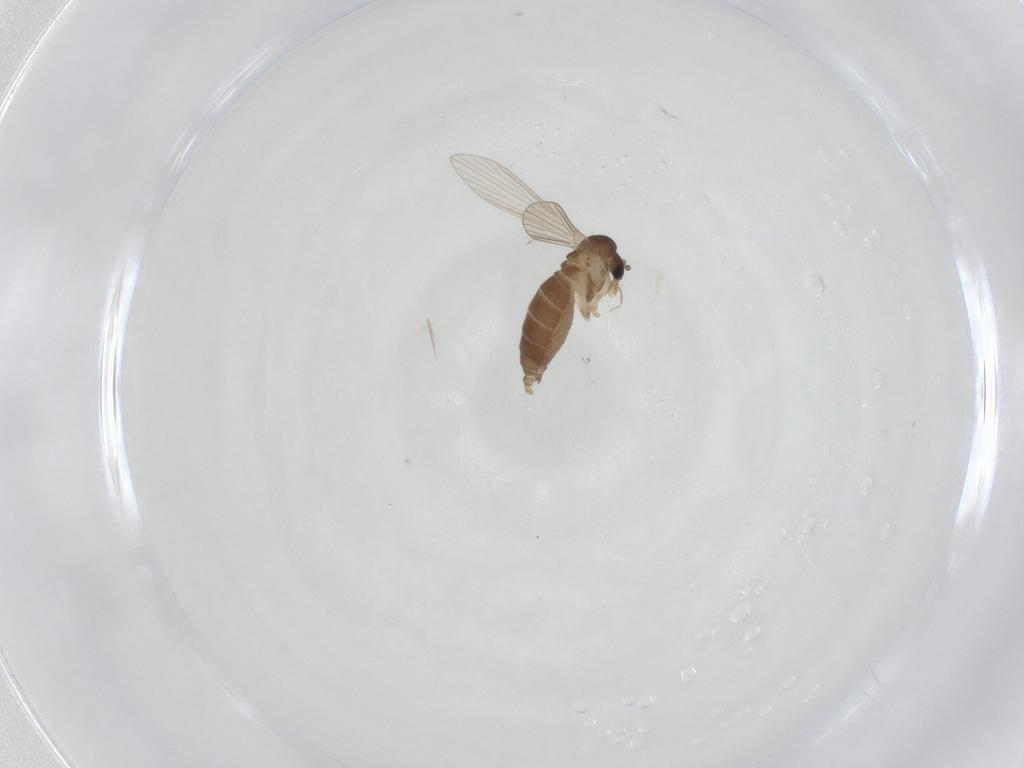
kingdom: Animalia
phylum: Arthropoda
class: Insecta
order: Diptera
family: Psychodidae
